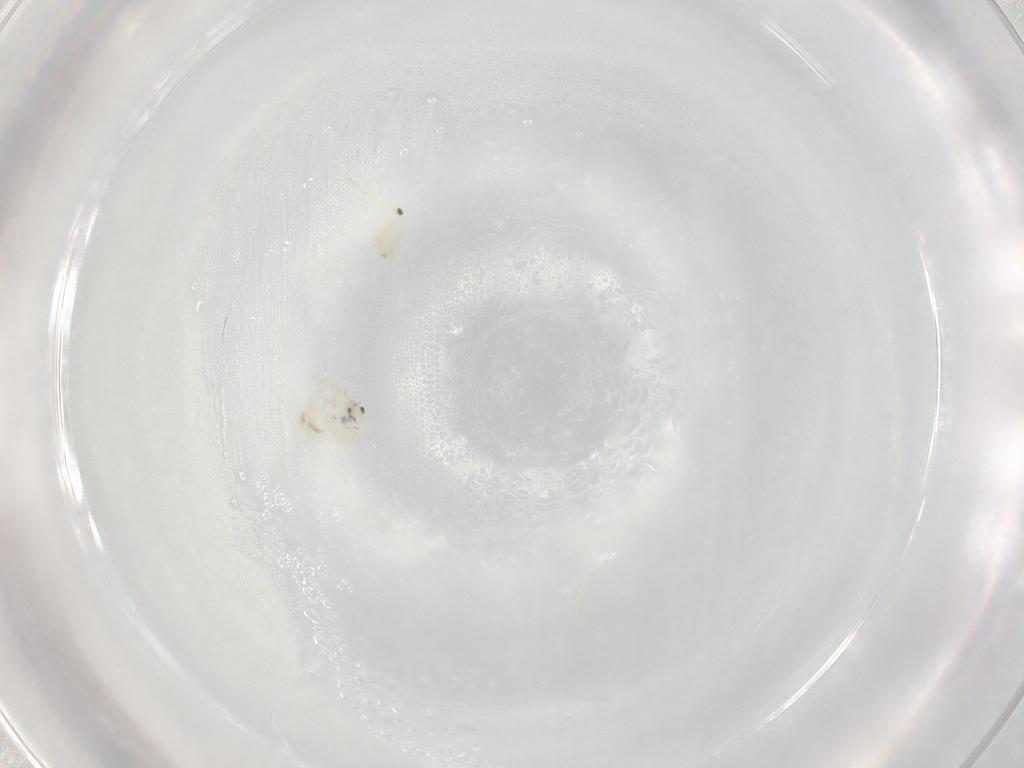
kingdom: Animalia
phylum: Arthropoda
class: Collembola
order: Entomobryomorpha
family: Entomobryidae
